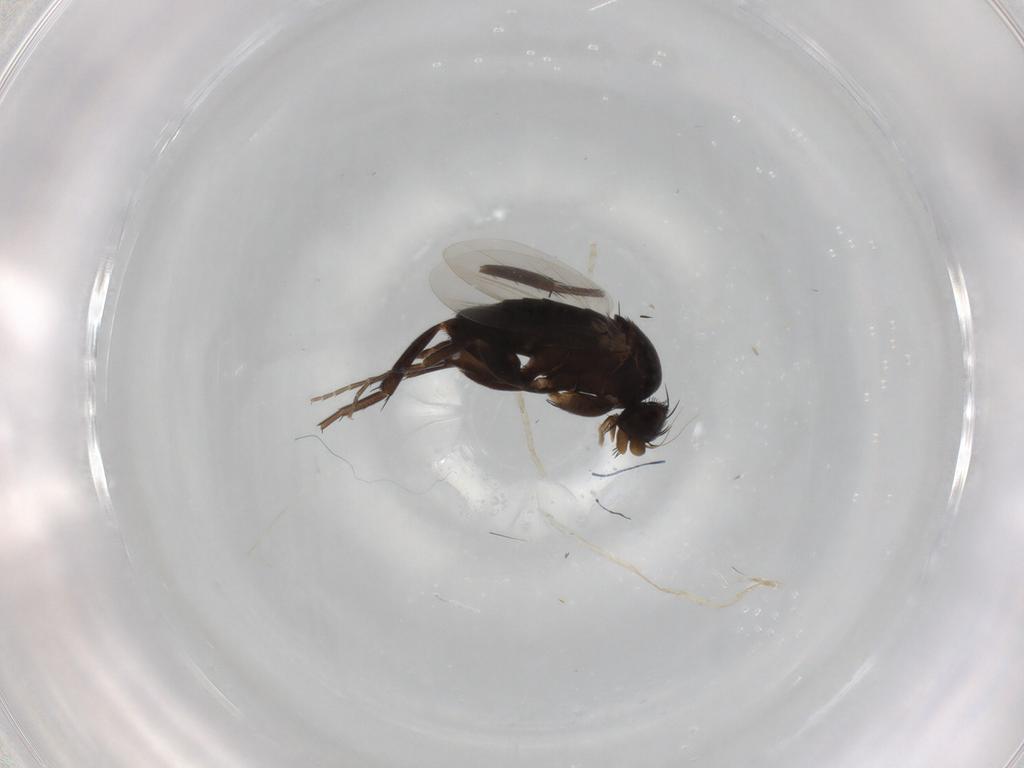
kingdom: Animalia
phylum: Arthropoda
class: Insecta
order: Diptera
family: Phoridae
